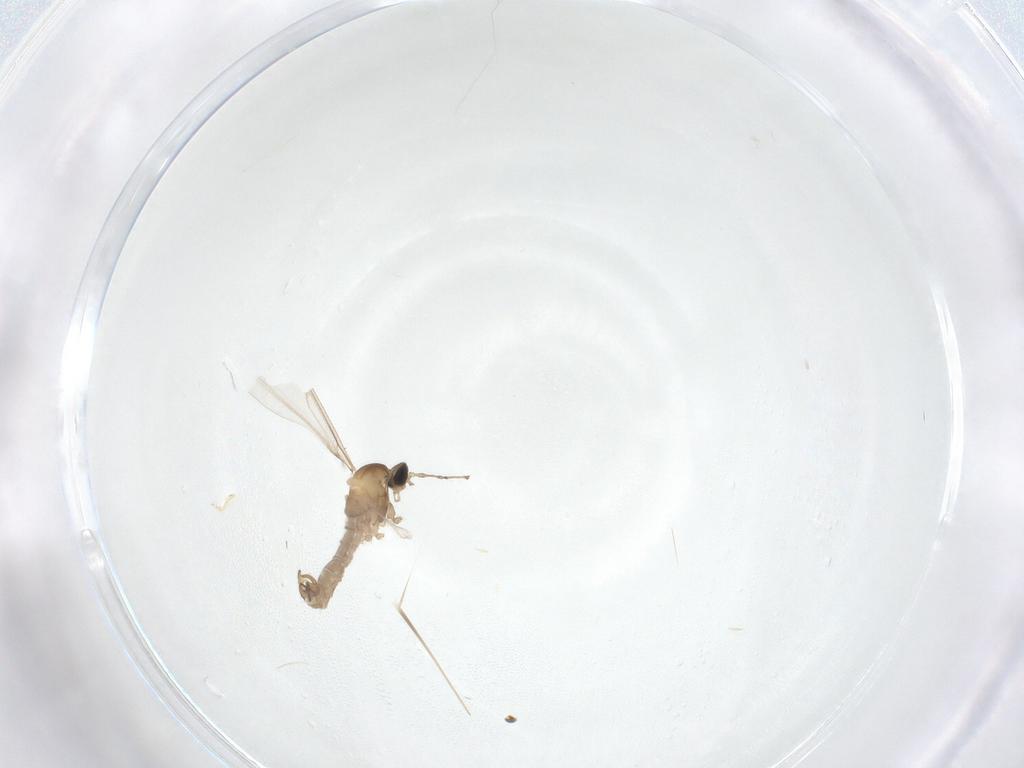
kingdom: Animalia
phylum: Arthropoda
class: Insecta
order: Diptera
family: Cecidomyiidae
